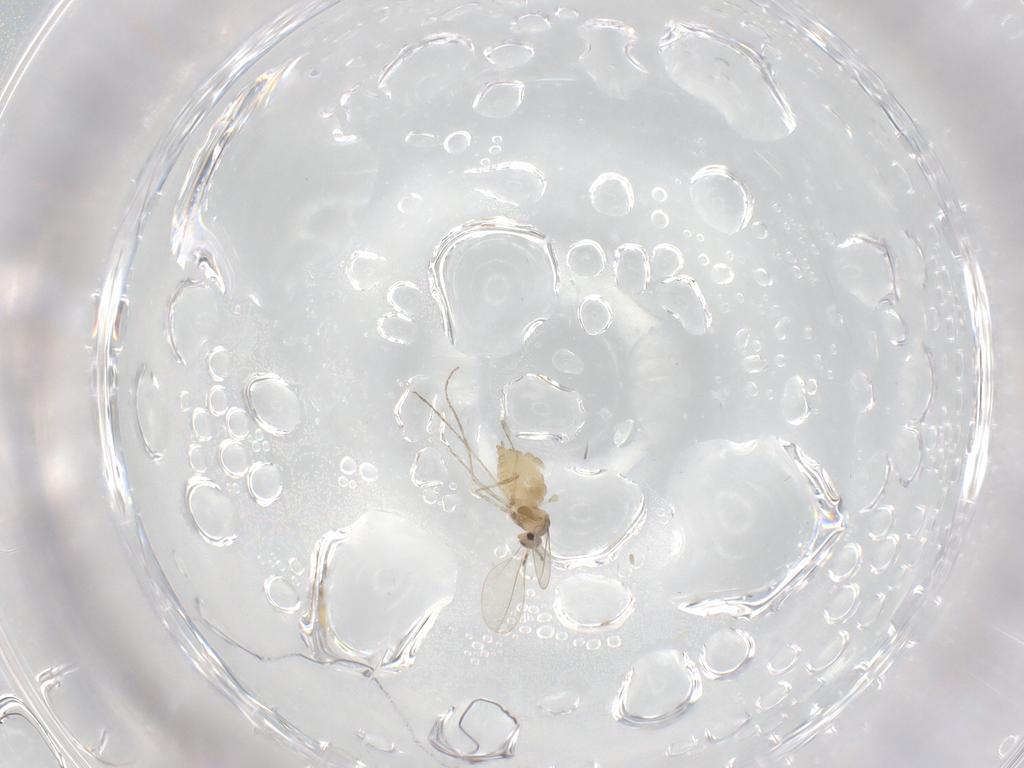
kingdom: Animalia
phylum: Arthropoda
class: Insecta
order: Diptera
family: Cecidomyiidae
